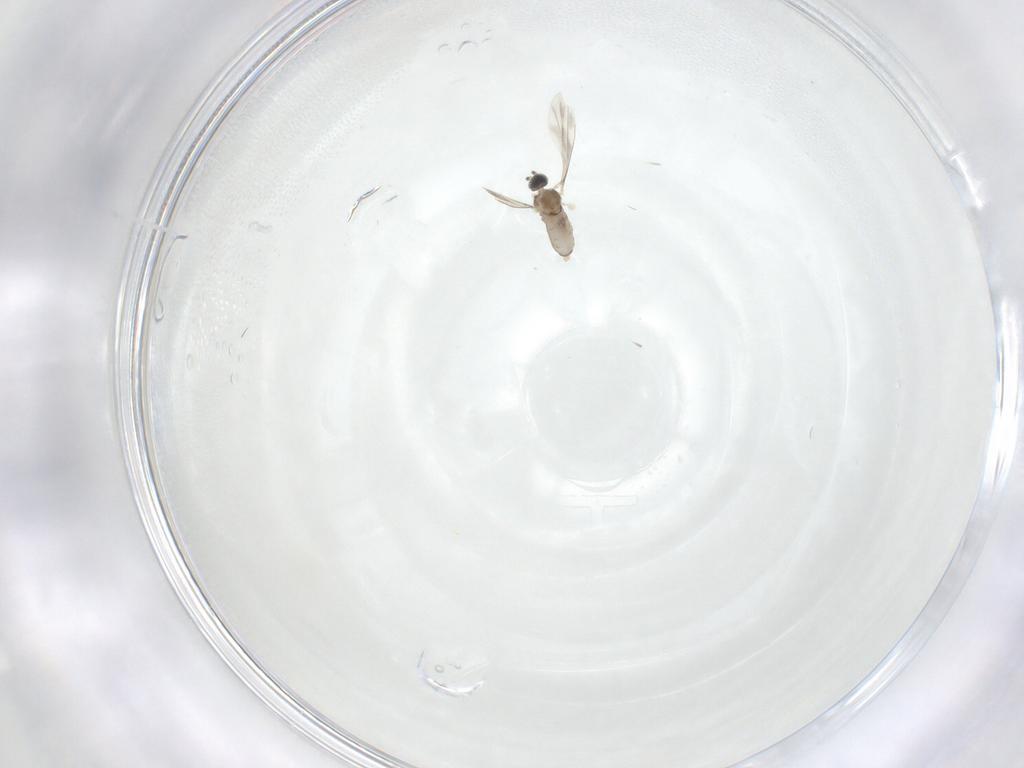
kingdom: Animalia
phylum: Arthropoda
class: Insecta
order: Diptera
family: Cecidomyiidae
